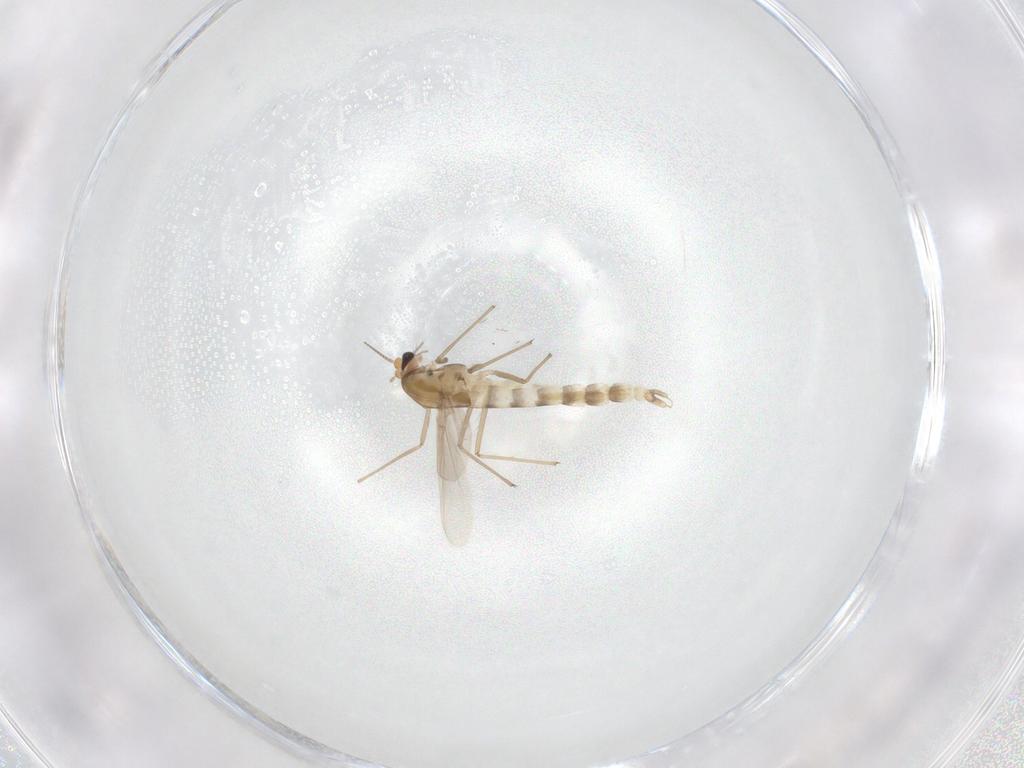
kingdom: Animalia
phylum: Arthropoda
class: Insecta
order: Diptera
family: Chironomidae
